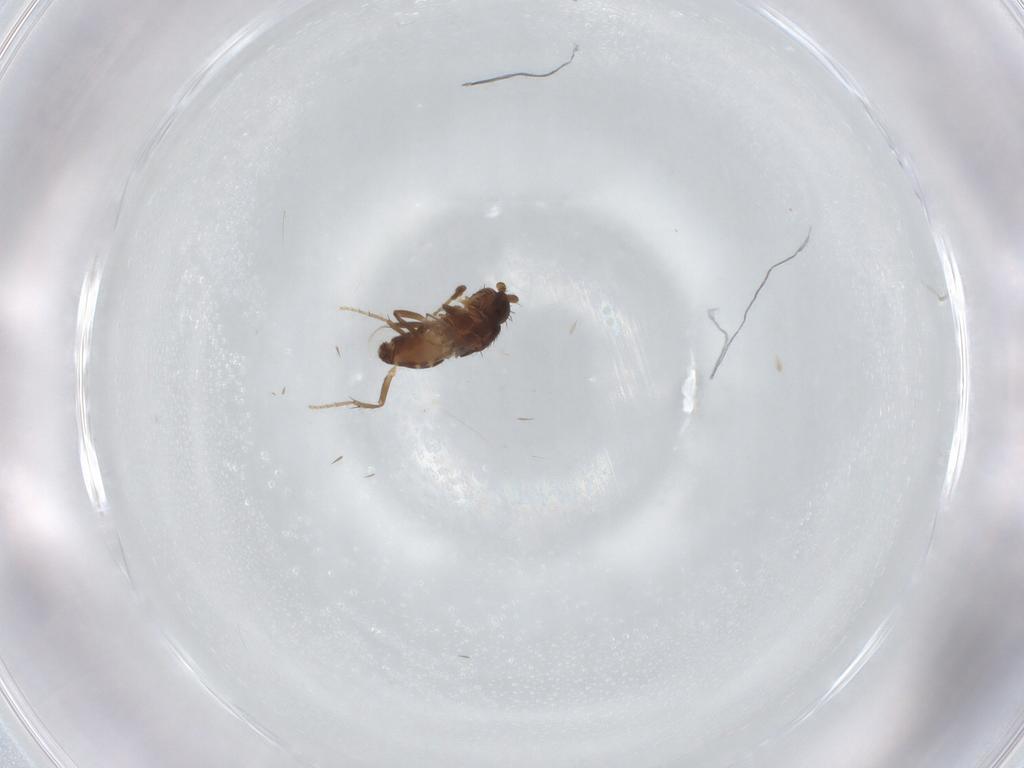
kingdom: Animalia
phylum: Arthropoda
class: Insecta
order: Diptera
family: Sphaeroceridae
